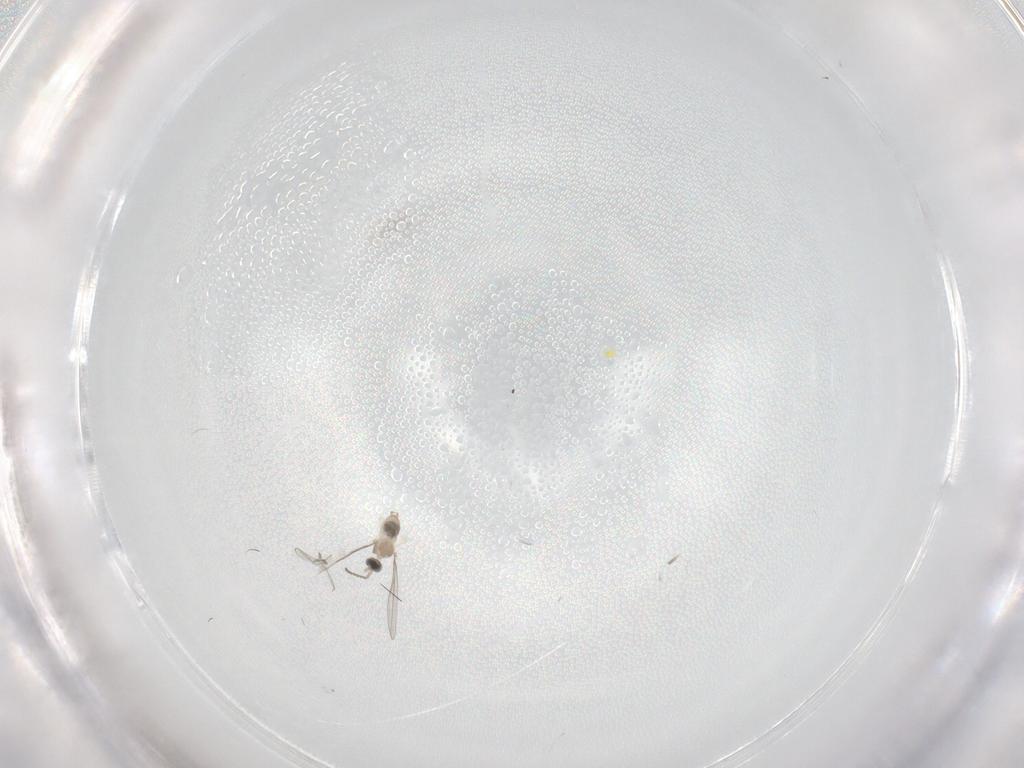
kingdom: Animalia
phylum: Arthropoda
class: Insecta
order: Diptera
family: Cecidomyiidae
